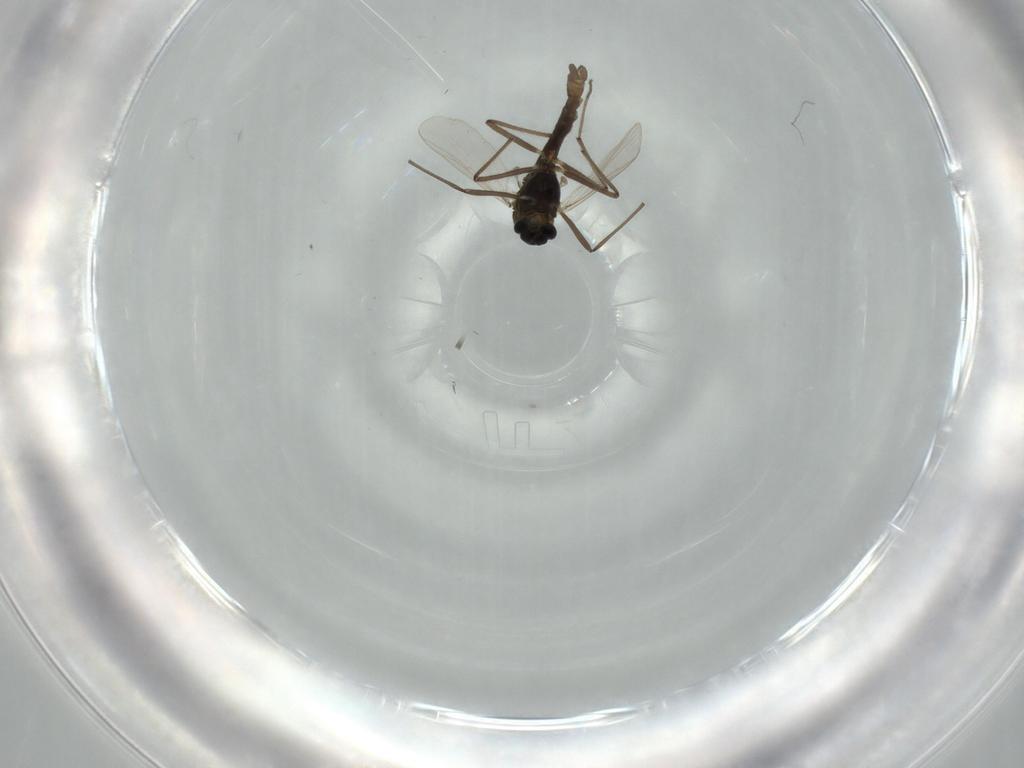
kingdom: Animalia
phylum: Arthropoda
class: Insecta
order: Diptera
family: Chironomidae
